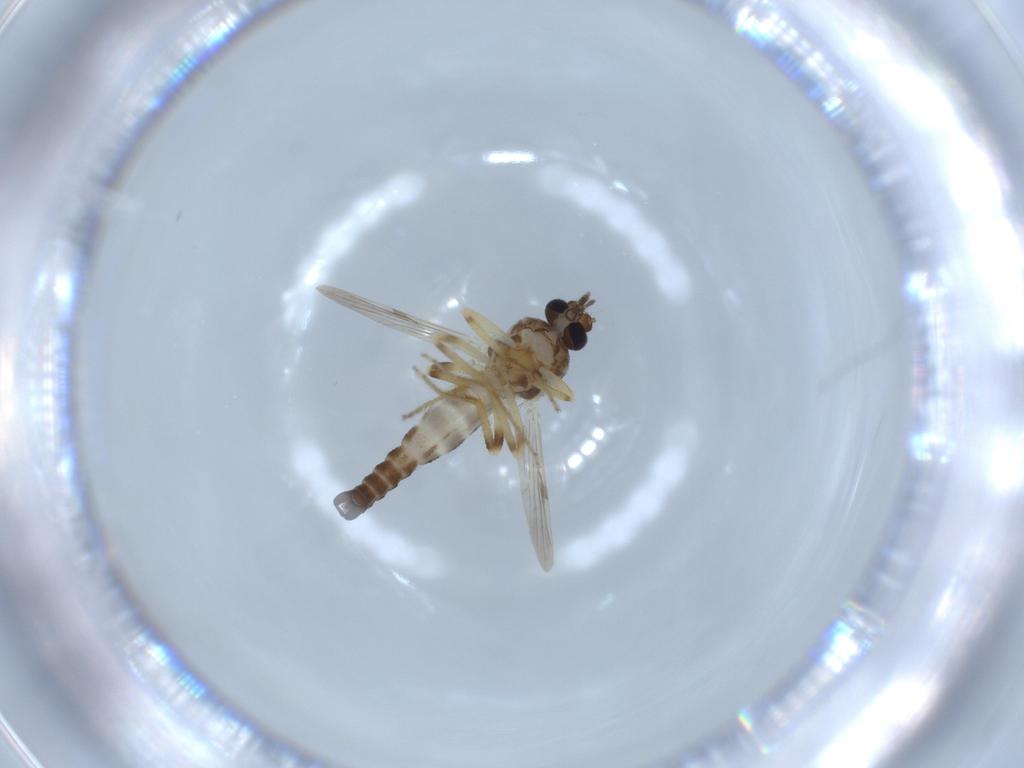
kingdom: Animalia
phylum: Arthropoda
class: Insecta
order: Diptera
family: Ceratopogonidae
